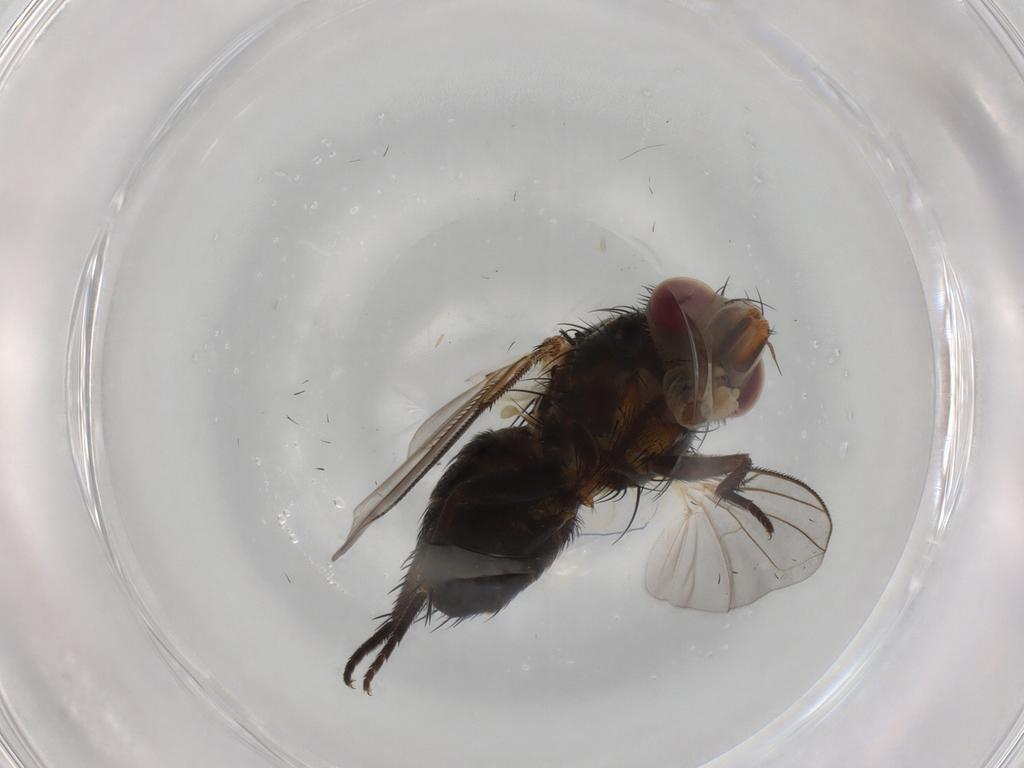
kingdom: Animalia
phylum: Arthropoda
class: Insecta
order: Diptera
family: Tachinidae
